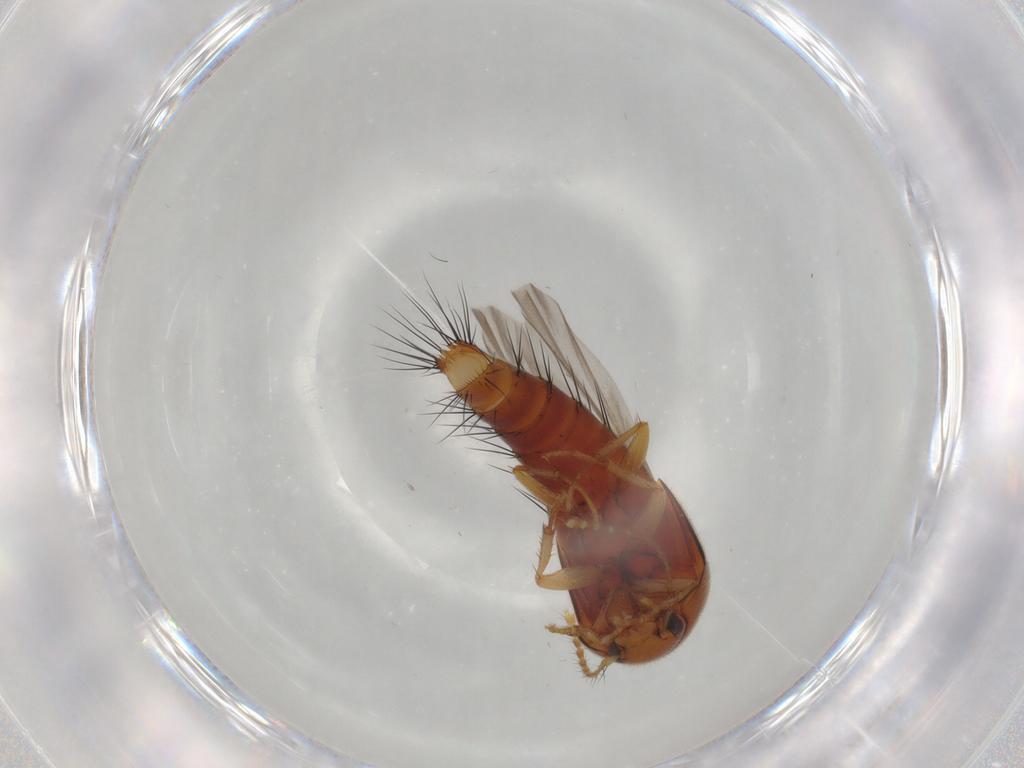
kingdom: Animalia
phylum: Arthropoda
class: Insecta
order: Coleoptera
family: Staphylinidae
